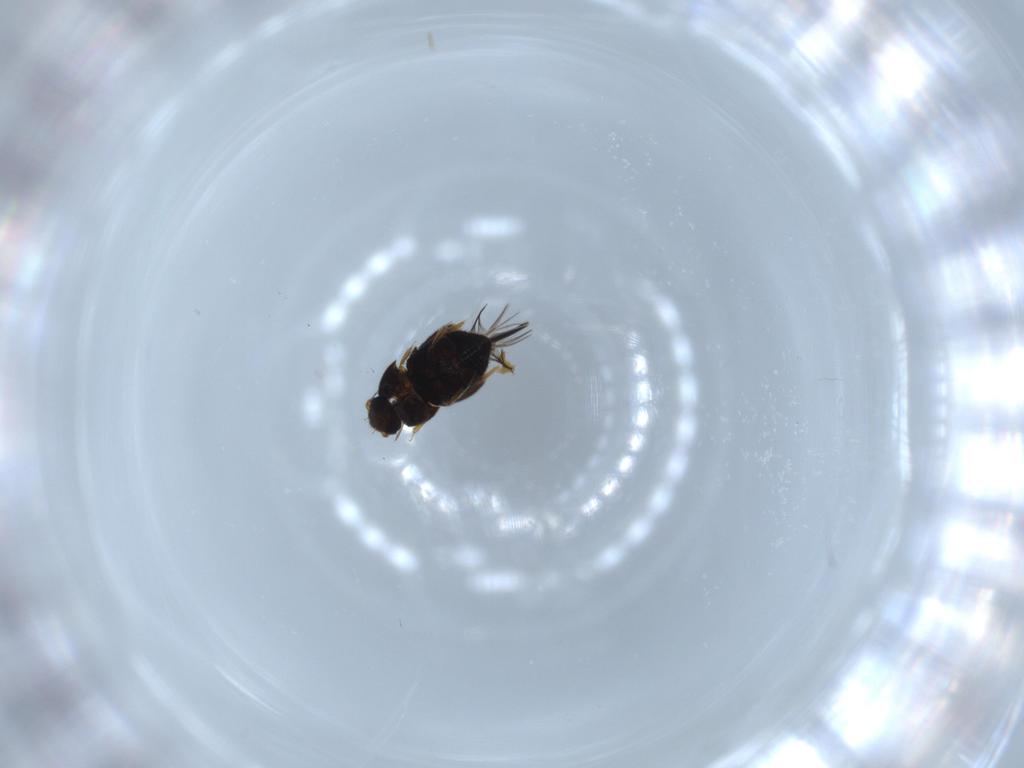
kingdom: Animalia
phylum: Arthropoda
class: Insecta
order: Coleoptera
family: Ptiliidae
